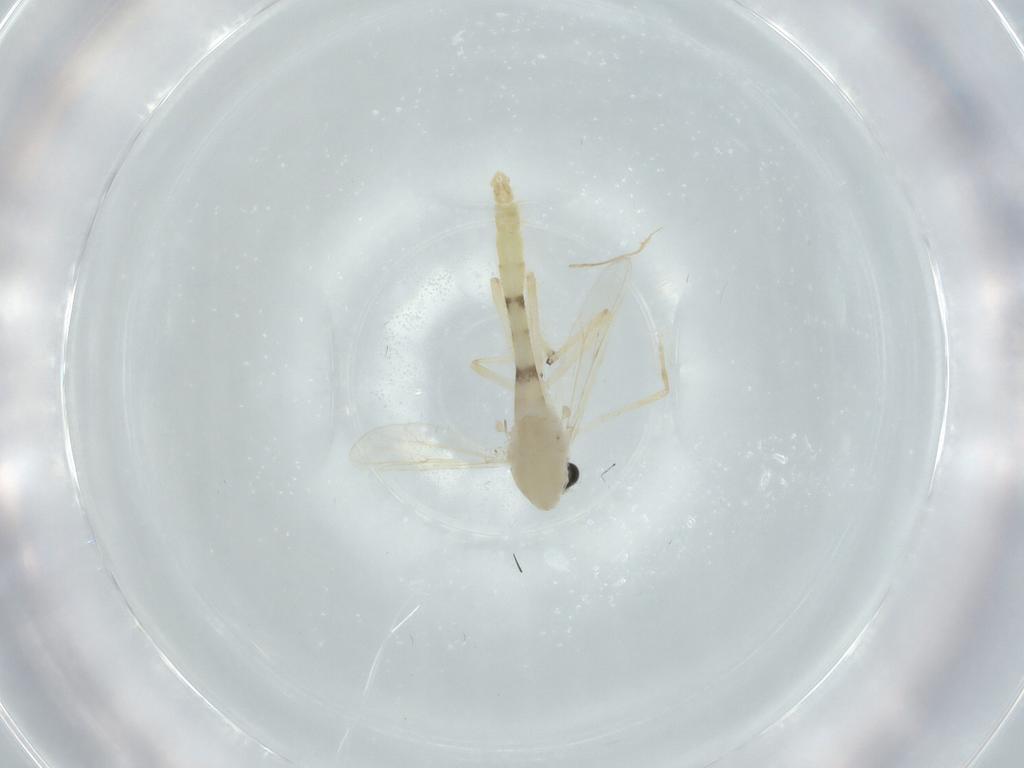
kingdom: Animalia
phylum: Arthropoda
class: Insecta
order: Diptera
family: Chironomidae
